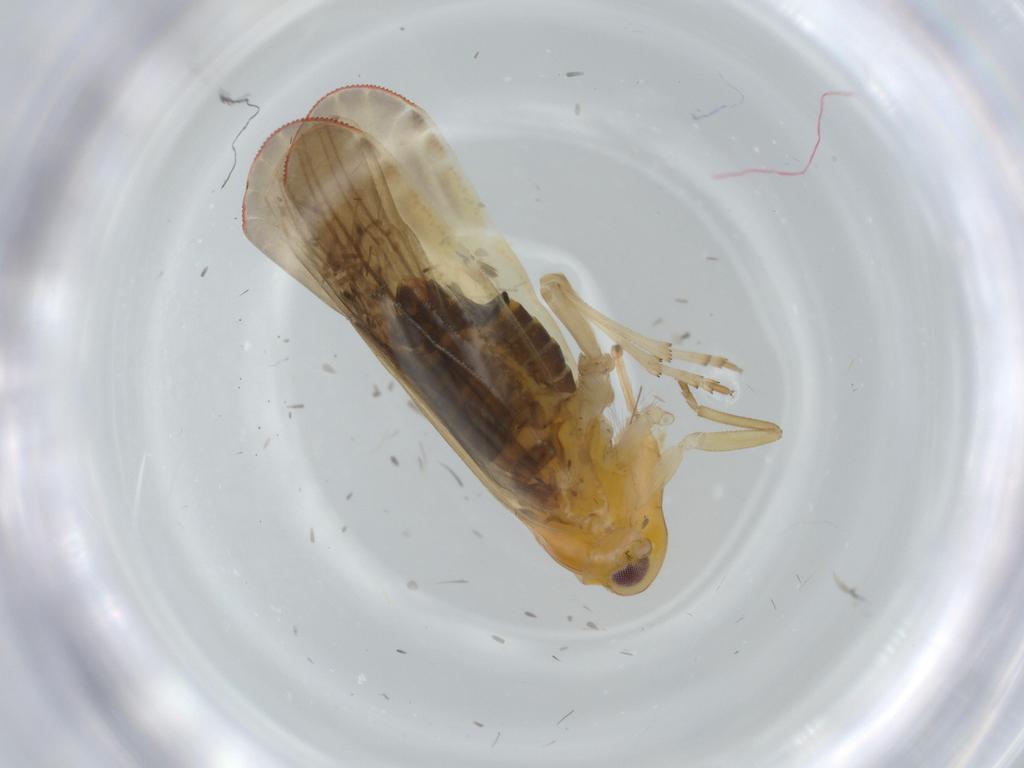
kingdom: Animalia
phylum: Arthropoda
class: Insecta
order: Hemiptera
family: Derbidae
